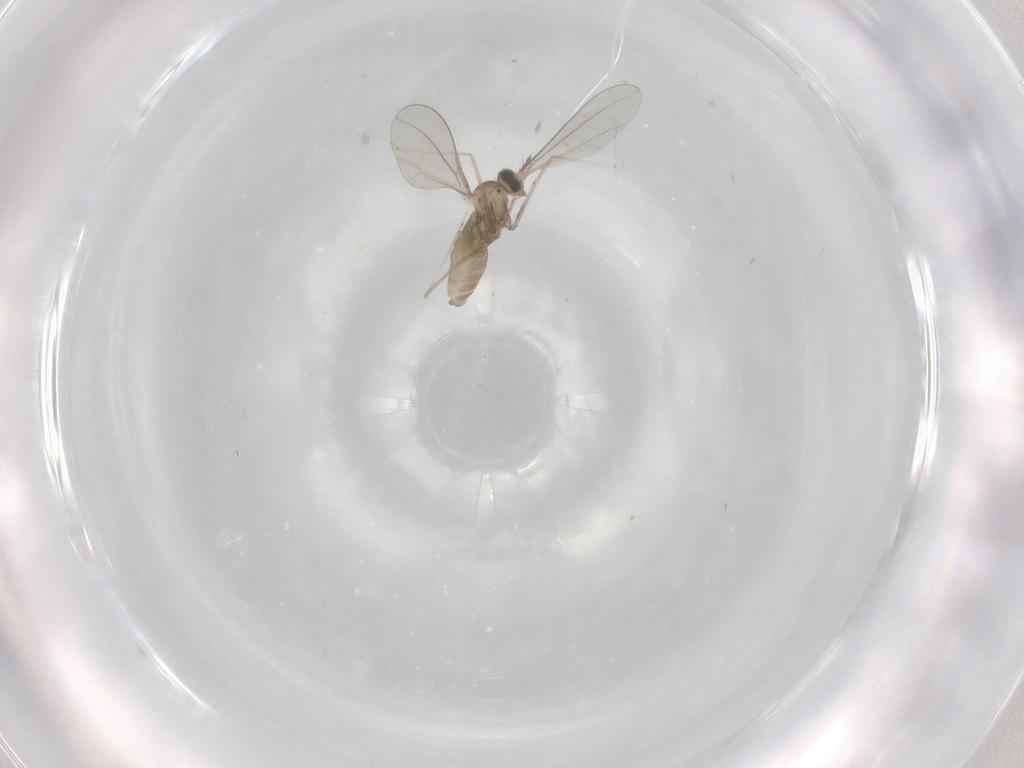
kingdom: Animalia
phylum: Arthropoda
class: Insecta
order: Diptera
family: Cecidomyiidae
